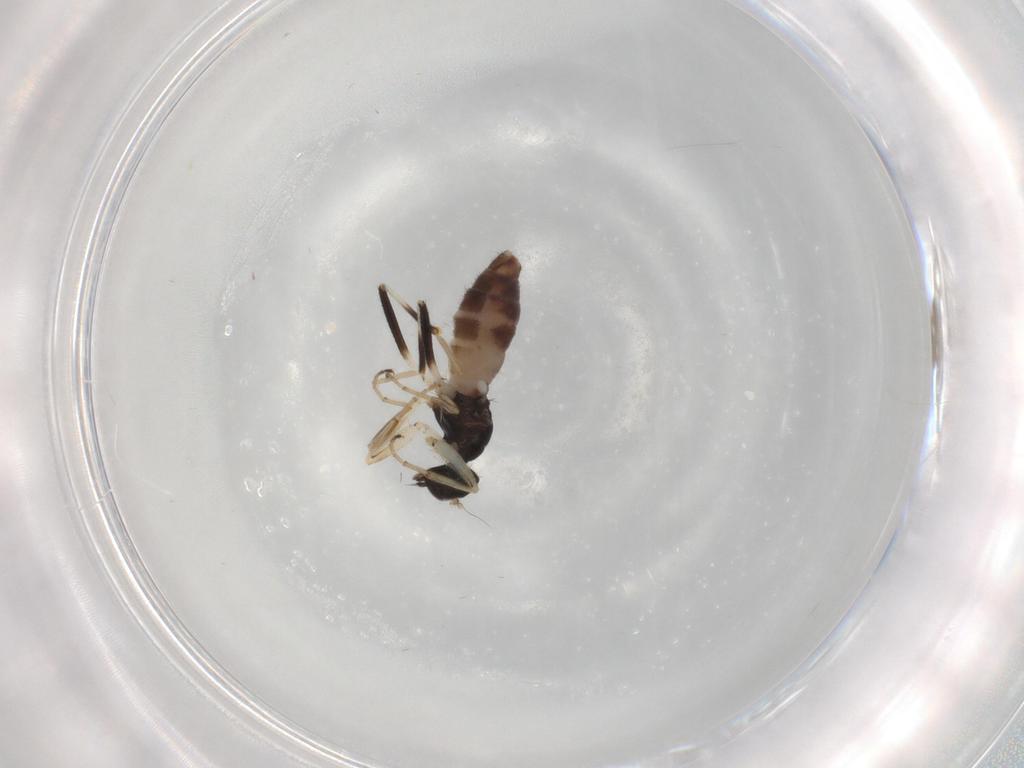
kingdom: Animalia
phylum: Arthropoda
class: Insecta
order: Diptera
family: Hybotidae
